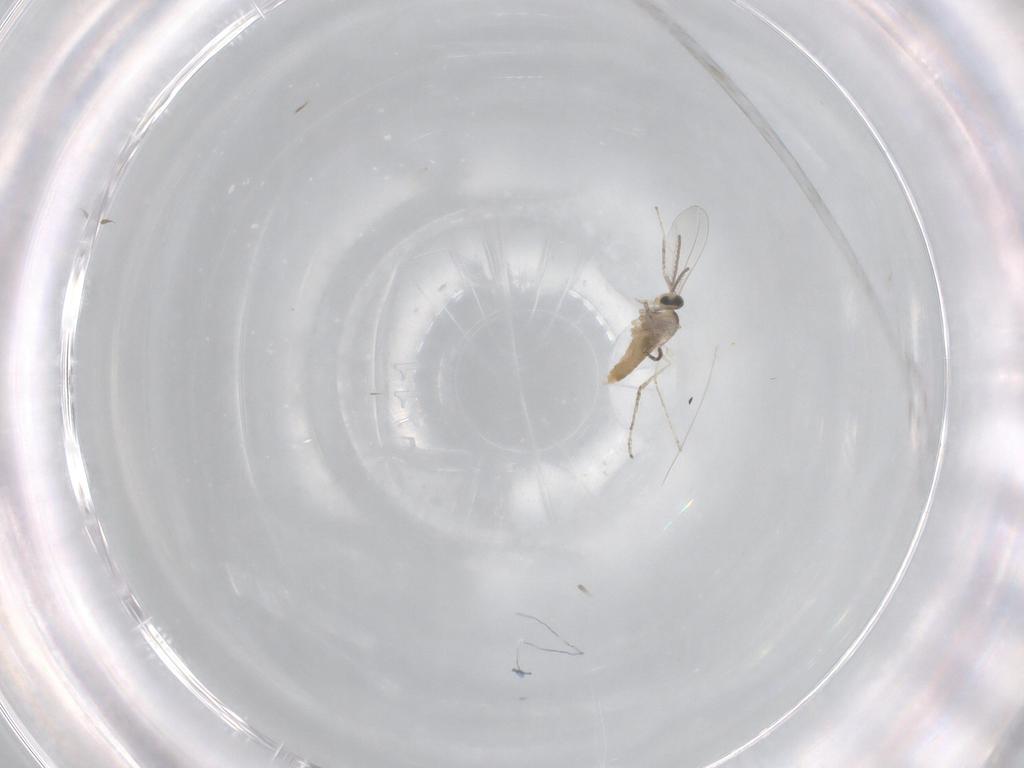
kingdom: Animalia
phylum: Arthropoda
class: Insecta
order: Diptera
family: Cecidomyiidae
